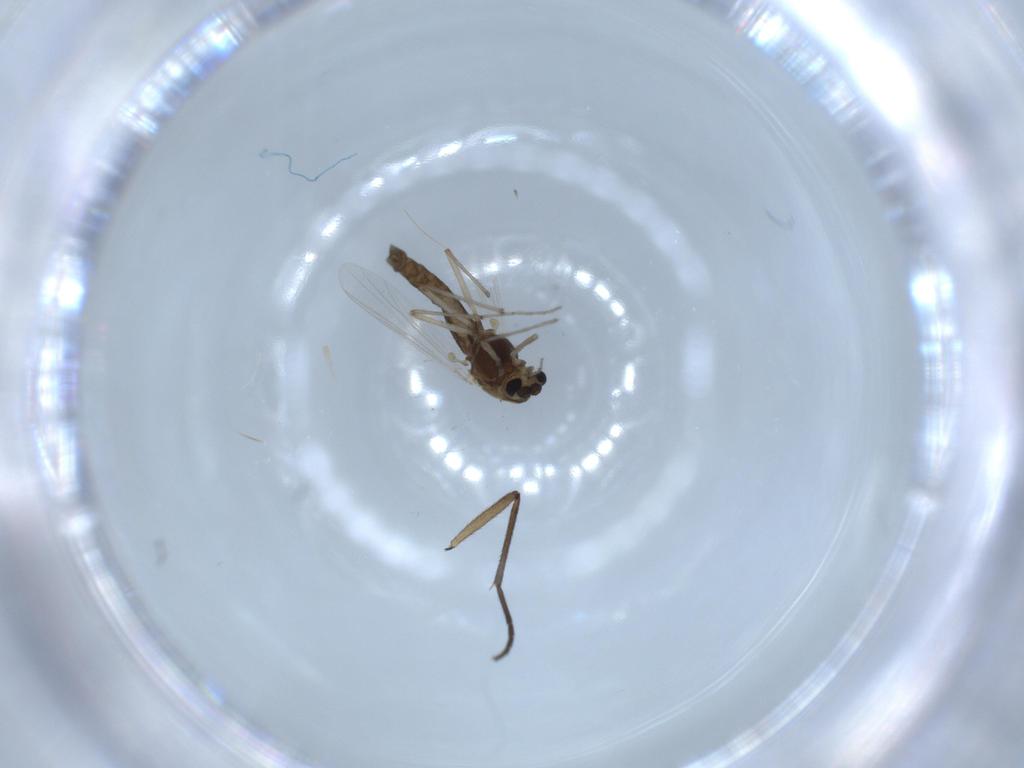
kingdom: Animalia
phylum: Arthropoda
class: Insecta
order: Diptera
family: Chironomidae
